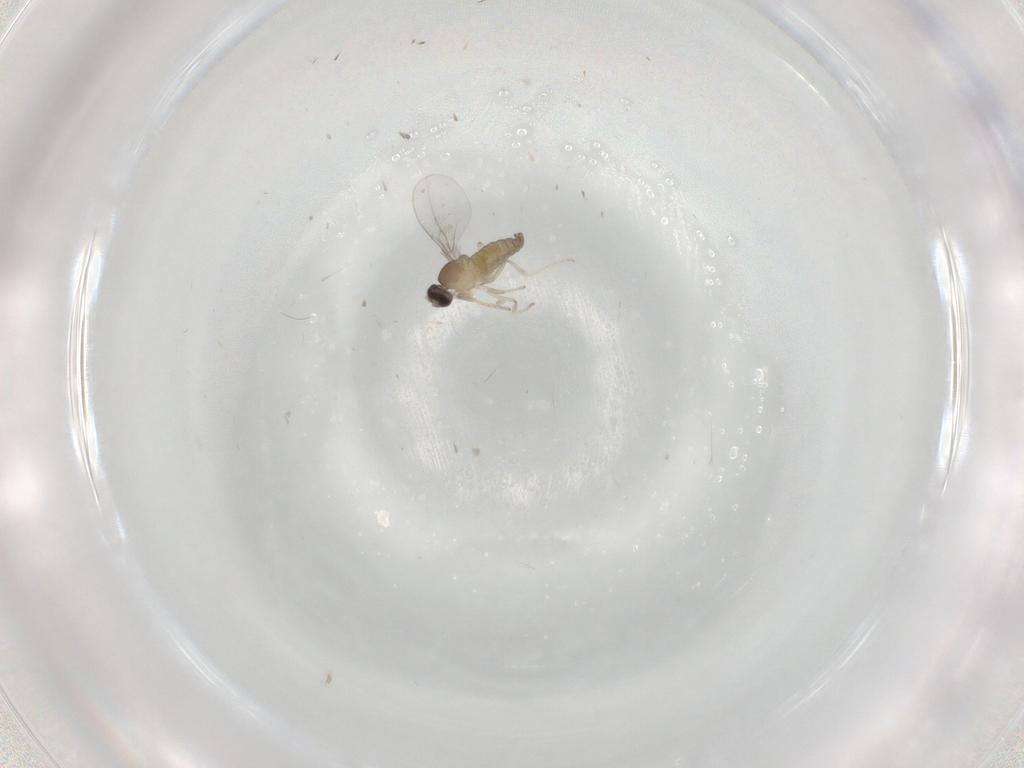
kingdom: Animalia
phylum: Arthropoda
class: Insecta
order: Diptera
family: Cecidomyiidae
